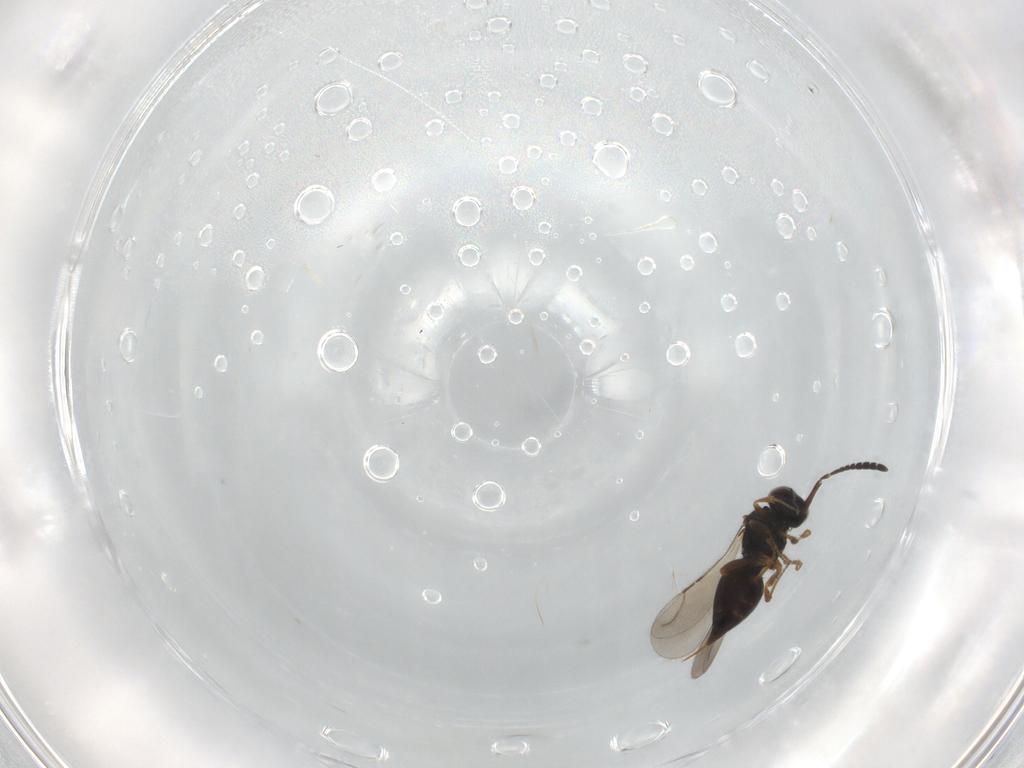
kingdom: Animalia
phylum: Arthropoda
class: Insecta
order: Hymenoptera
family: Ceraphronidae
